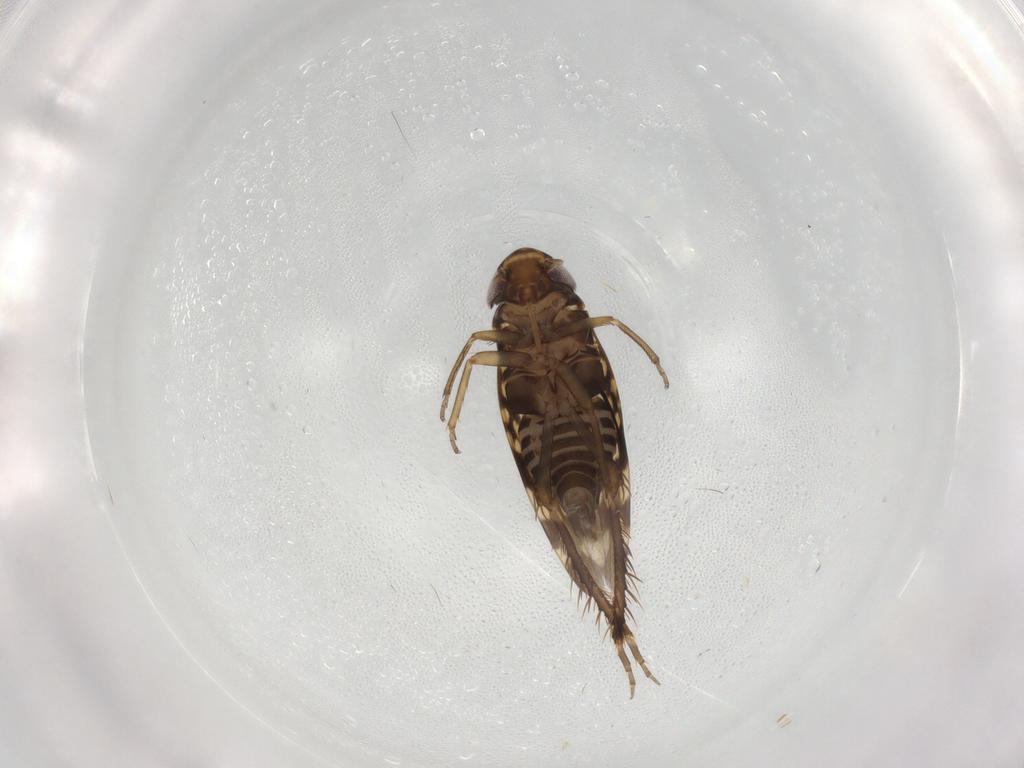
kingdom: Animalia
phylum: Arthropoda
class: Insecta
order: Hemiptera
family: Cicadellidae
